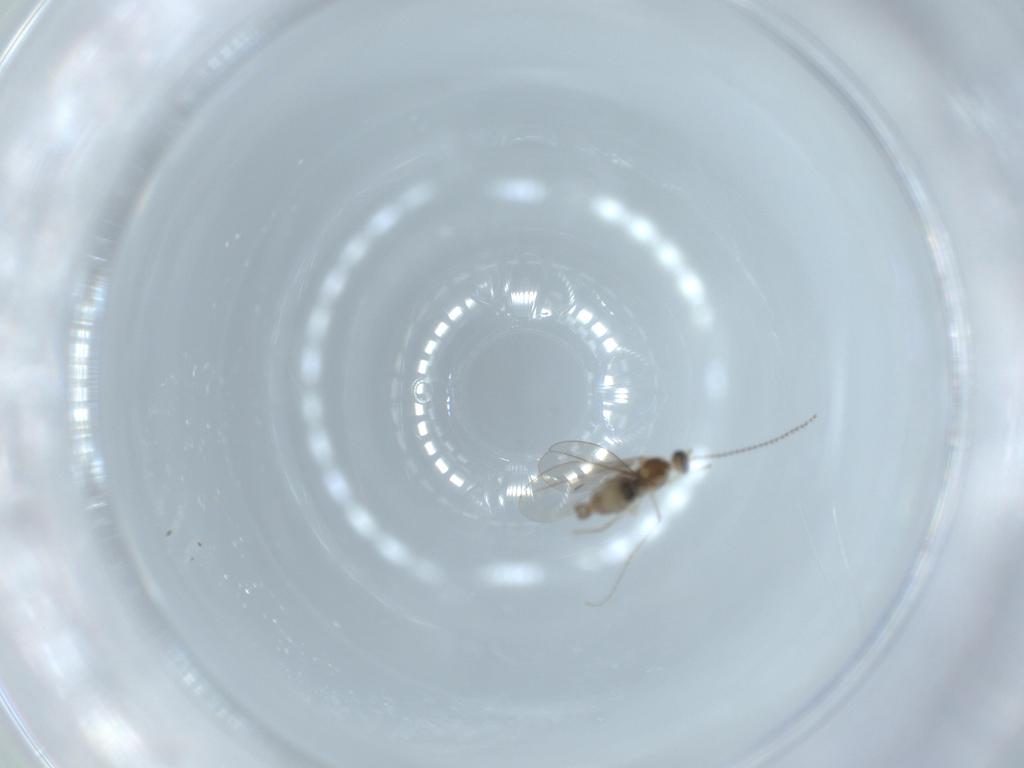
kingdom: Animalia
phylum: Arthropoda
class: Insecta
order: Diptera
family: Cecidomyiidae
